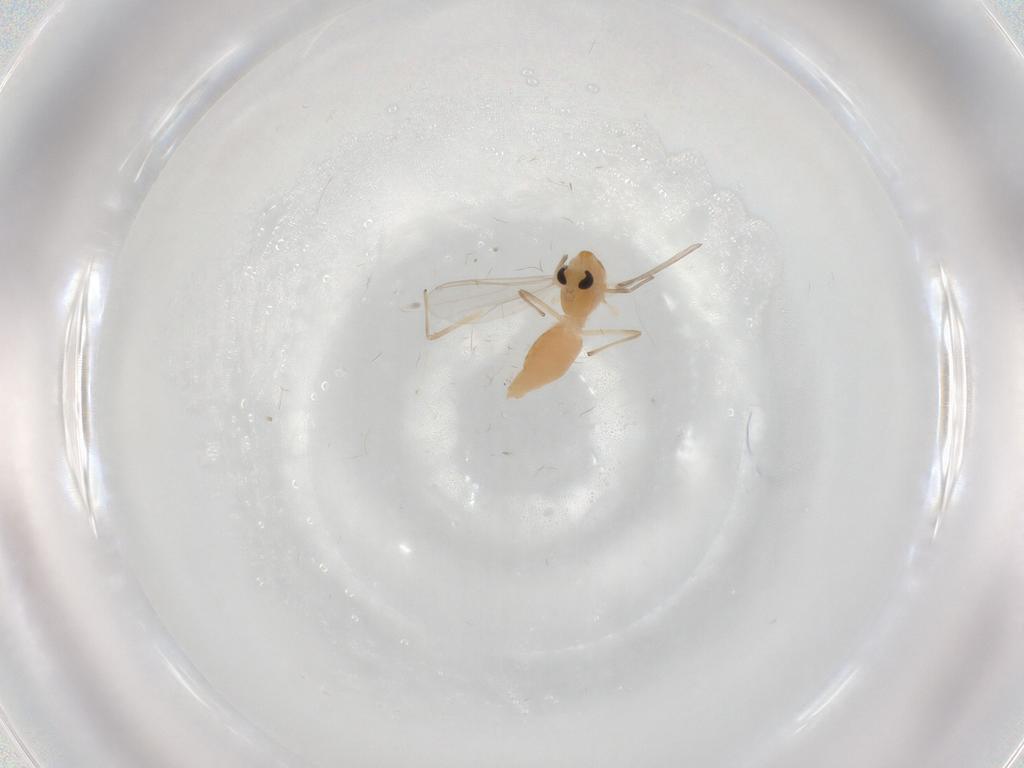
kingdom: Animalia
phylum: Arthropoda
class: Insecta
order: Diptera
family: Chironomidae
